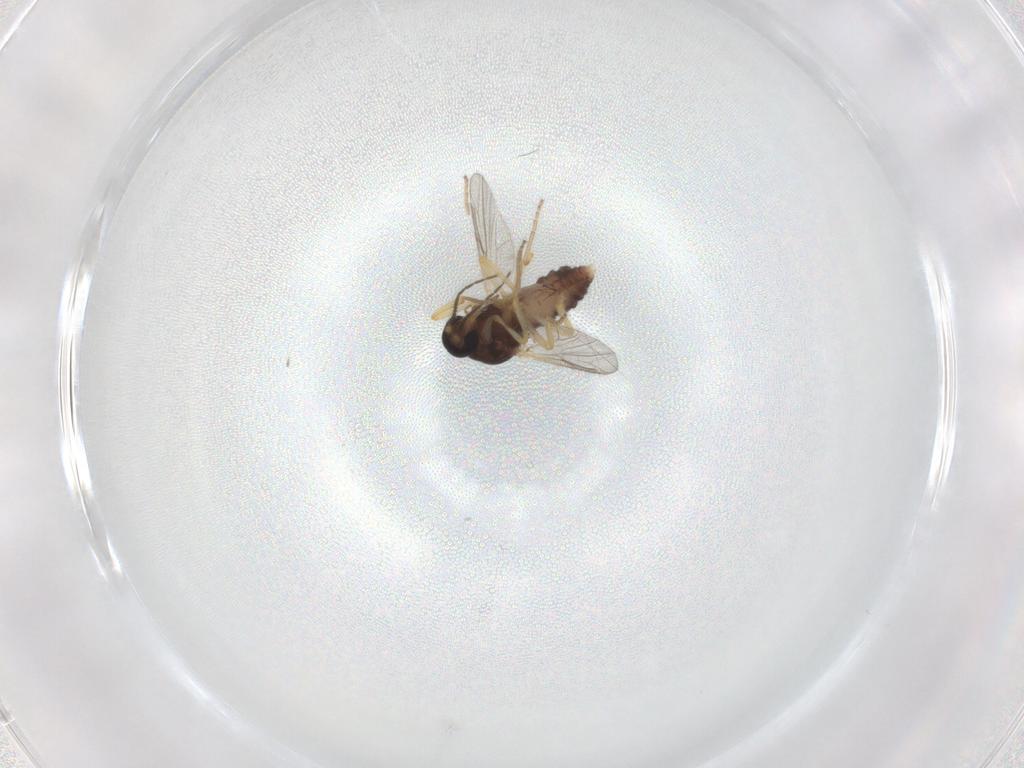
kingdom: Animalia
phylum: Arthropoda
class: Insecta
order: Diptera
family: Ceratopogonidae
